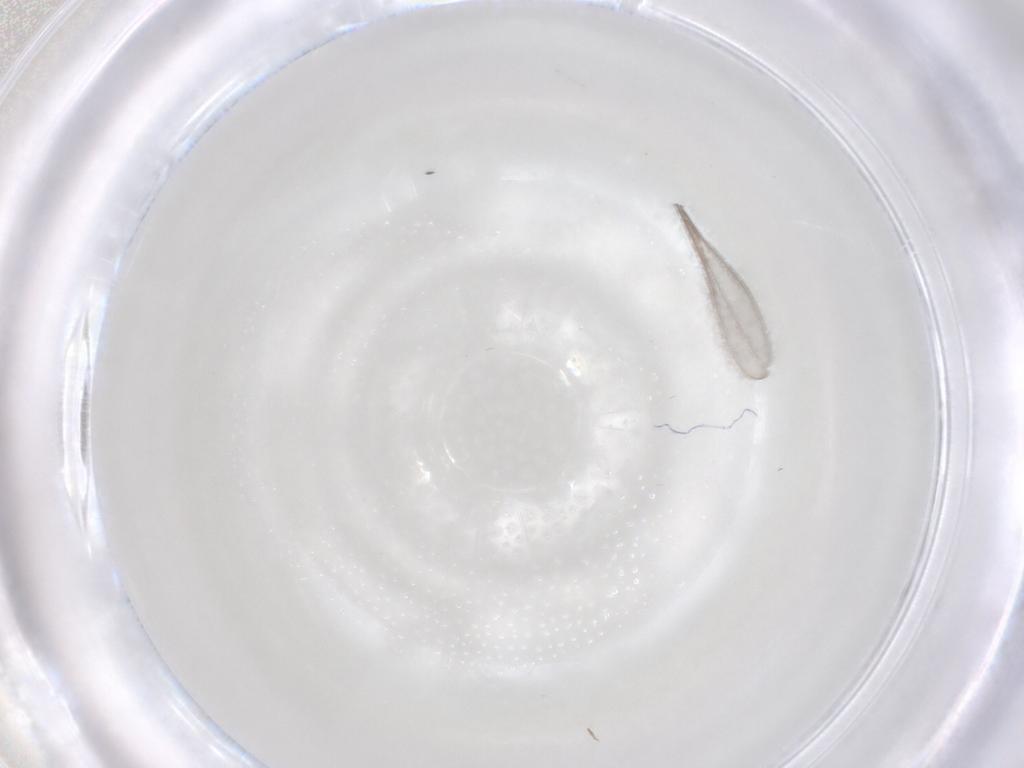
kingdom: Animalia
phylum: Arthropoda
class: Insecta
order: Diptera
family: Cecidomyiidae
